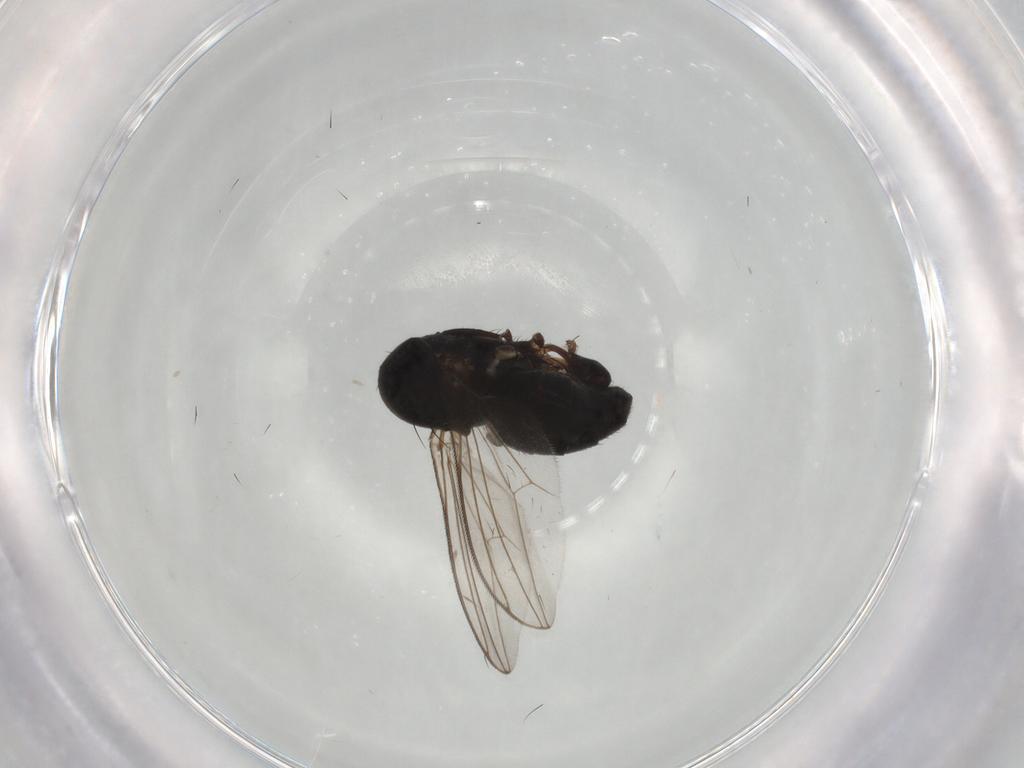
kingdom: Animalia
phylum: Arthropoda
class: Insecta
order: Diptera
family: Dolichopodidae
